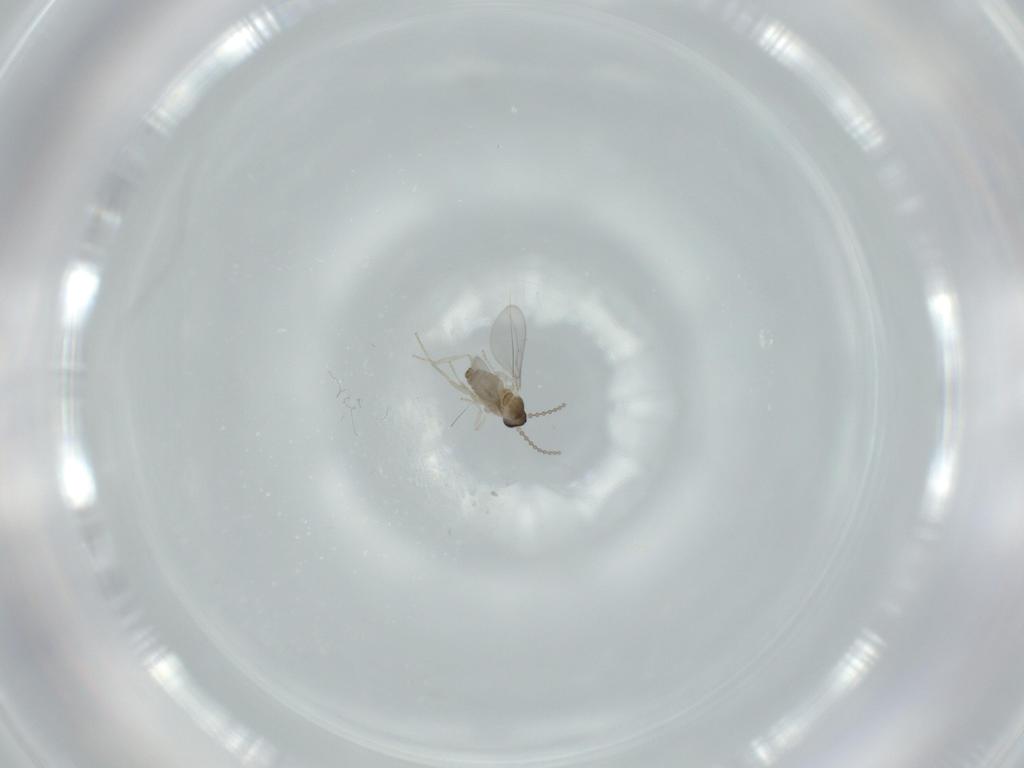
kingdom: Animalia
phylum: Arthropoda
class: Insecta
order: Diptera
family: Cecidomyiidae
